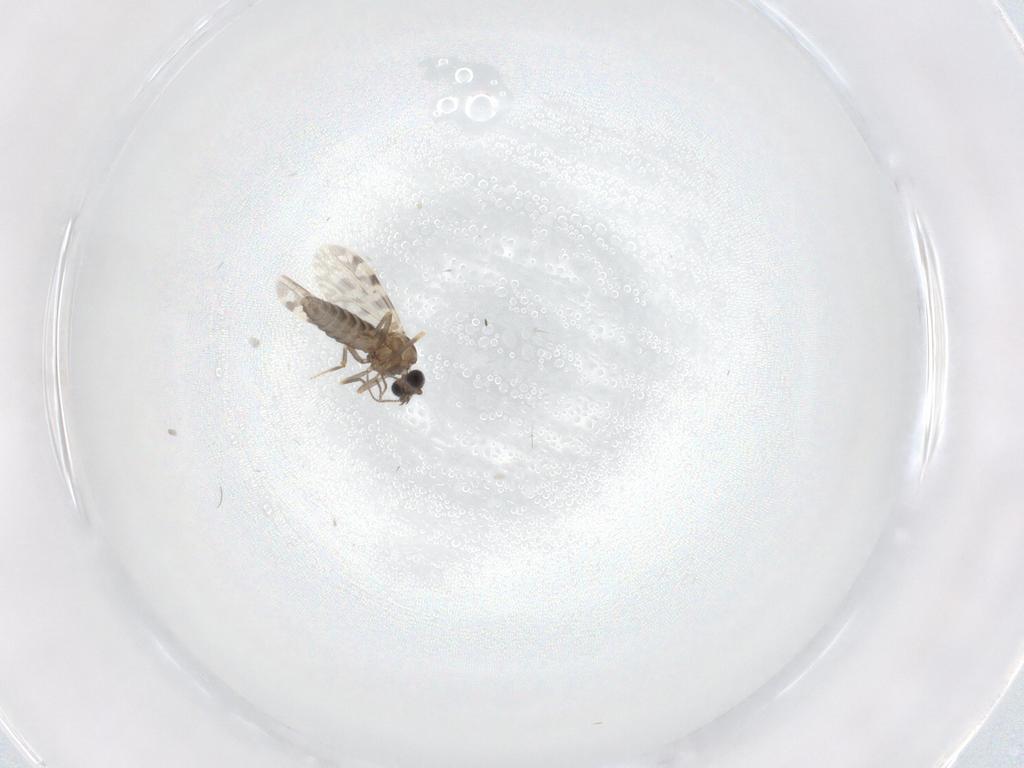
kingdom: Animalia
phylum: Arthropoda
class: Insecta
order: Diptera
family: Ceratopogonidae
